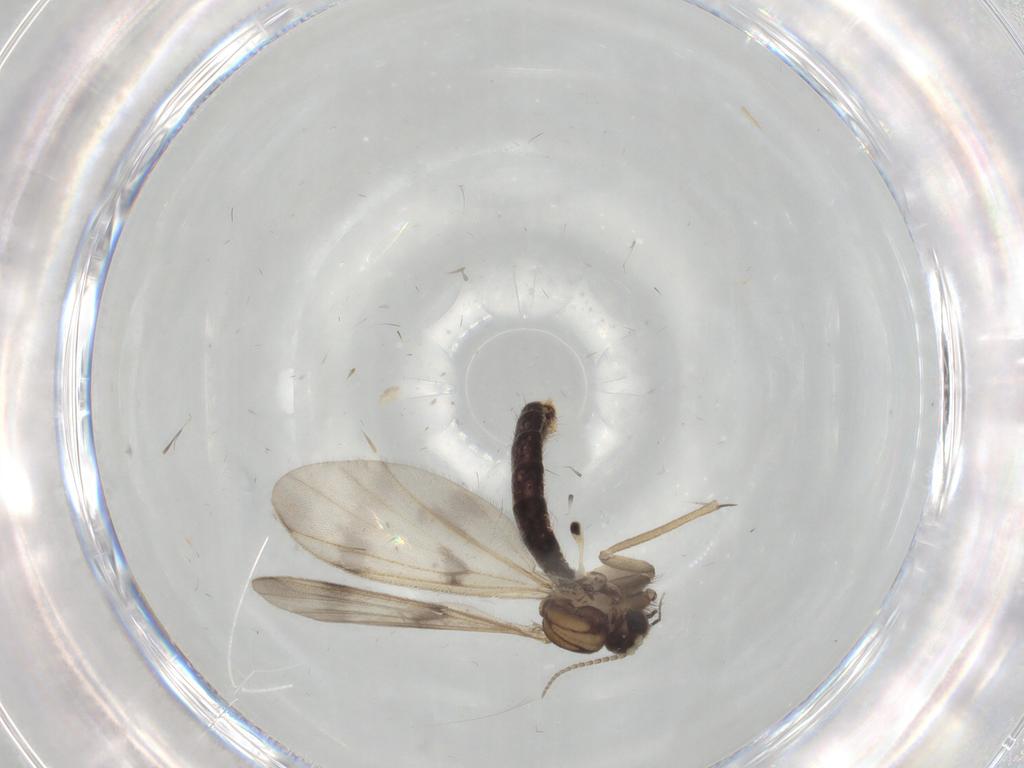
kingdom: Animalia
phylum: Arthropoda
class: Insecta
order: Diptera
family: Mycetophilidae
